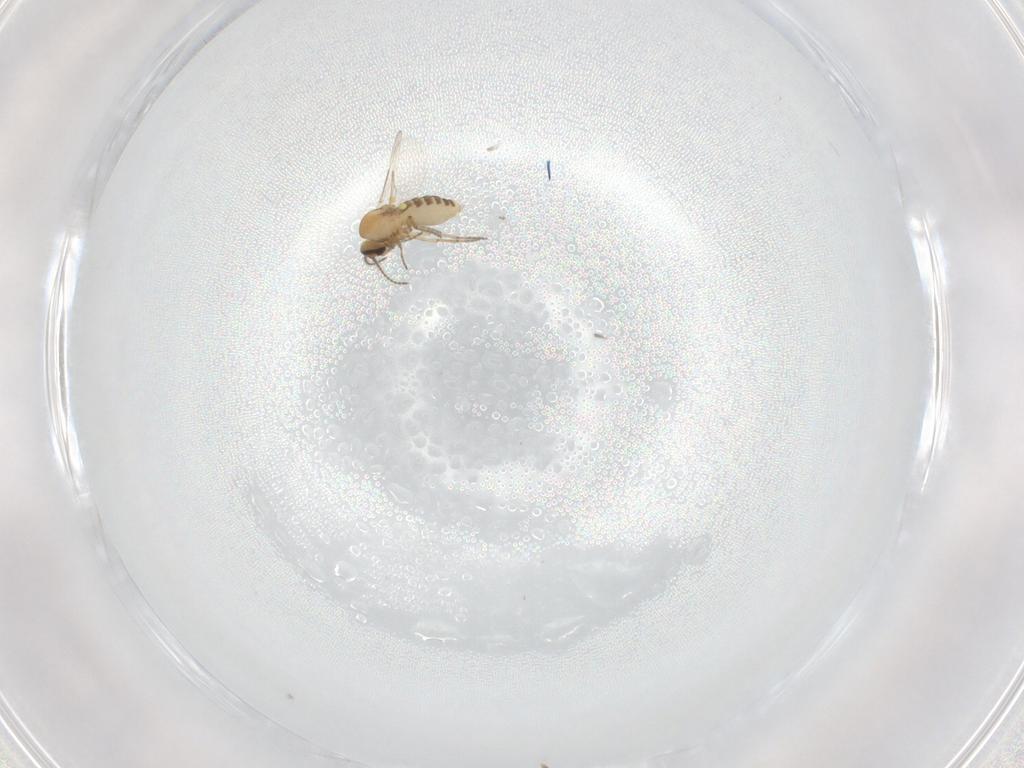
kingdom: Animalia
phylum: Arthropoda
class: Insecta
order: Diptera
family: Ceratopogonidae
